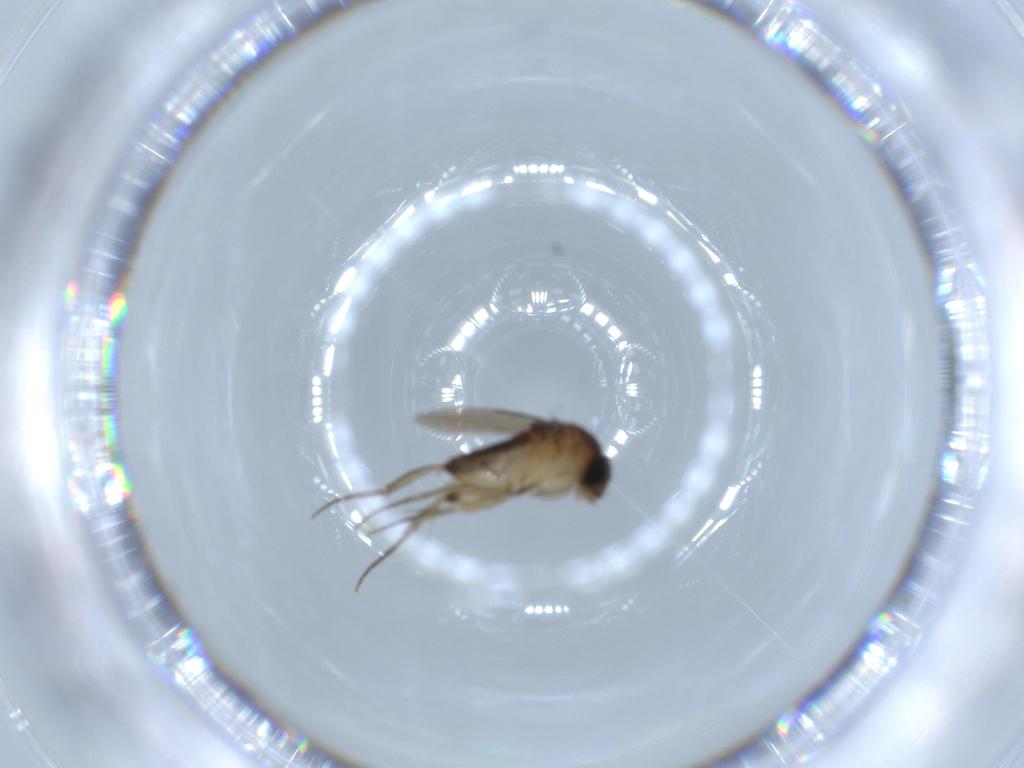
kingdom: Animalia
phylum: Arthropoda
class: Insecta
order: Diptera
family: Phoridae
